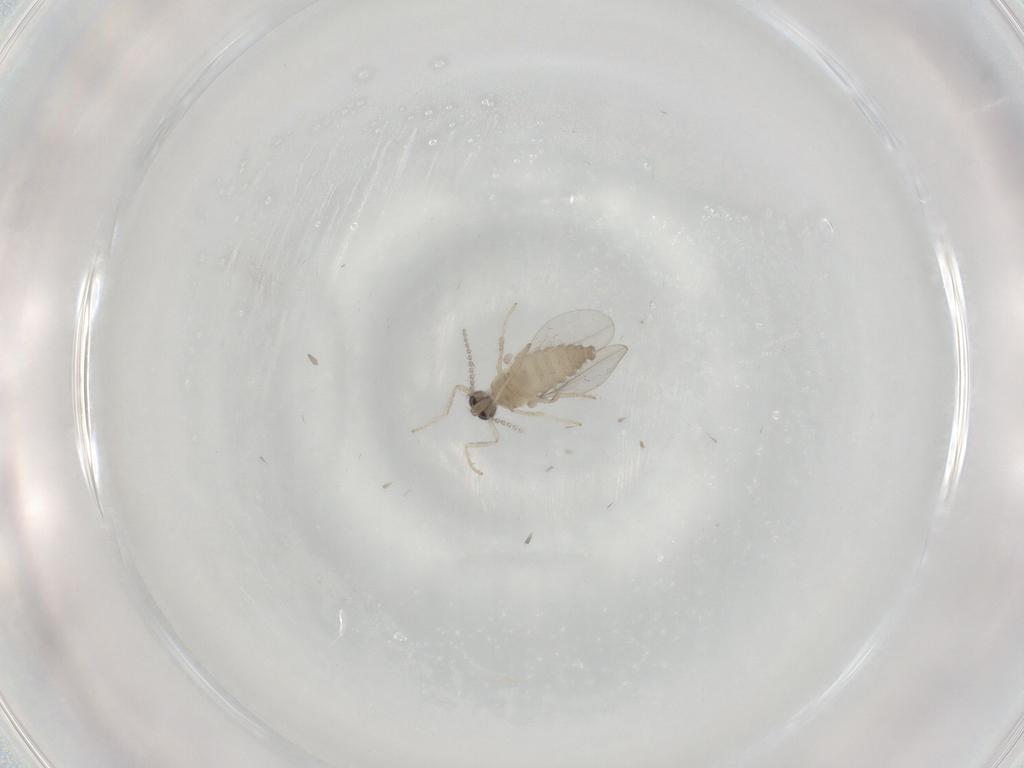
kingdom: Animalia
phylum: Arthropoda
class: Insecta
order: Diptera
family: Cecidomyiidae
